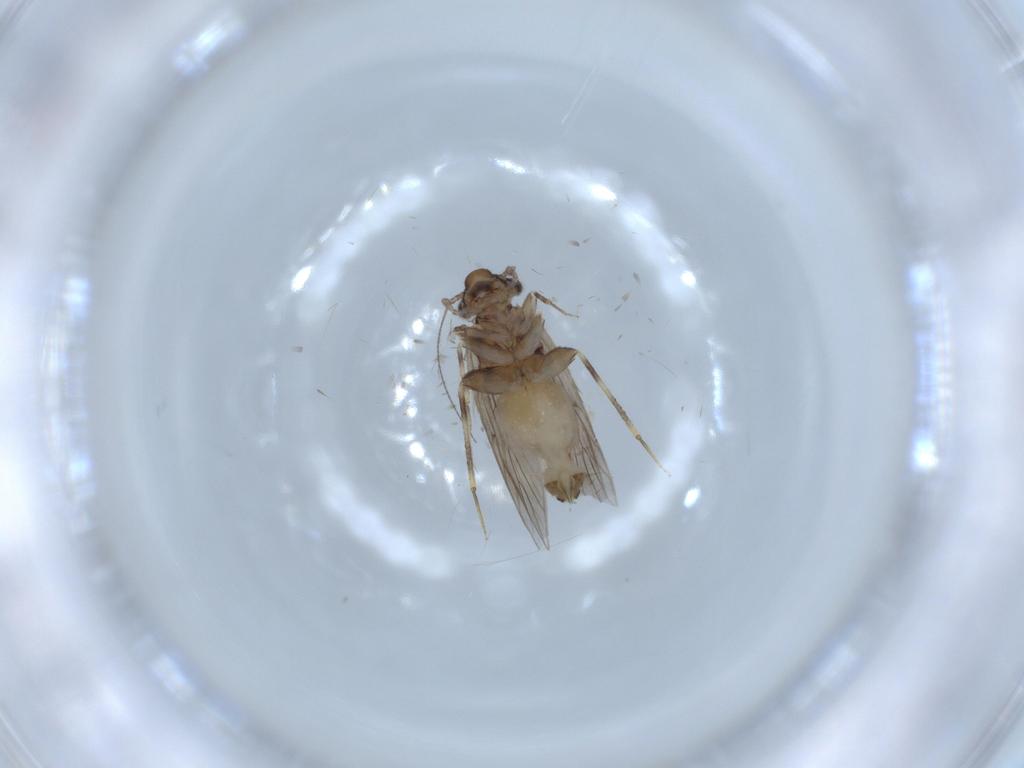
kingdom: Animalia
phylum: Arthropoda
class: Insecta
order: Psocodea
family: Lepidopsocidae
